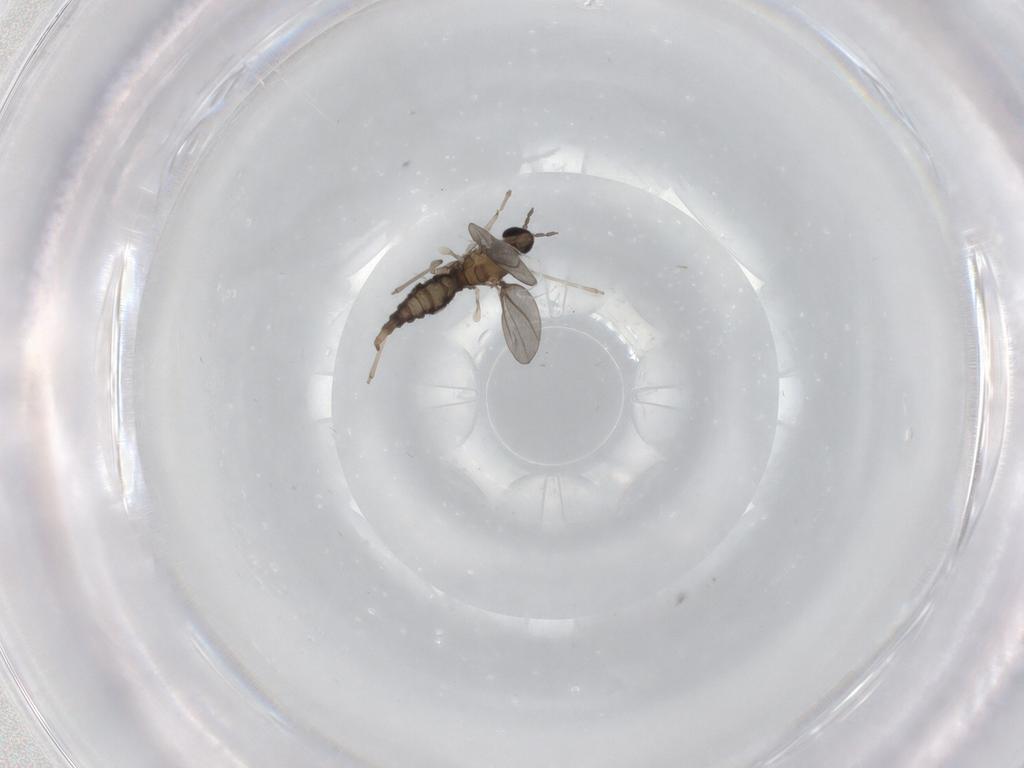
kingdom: Animalia
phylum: Arthropoda
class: Insecta
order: Diptera
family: Cecidomyiidae
